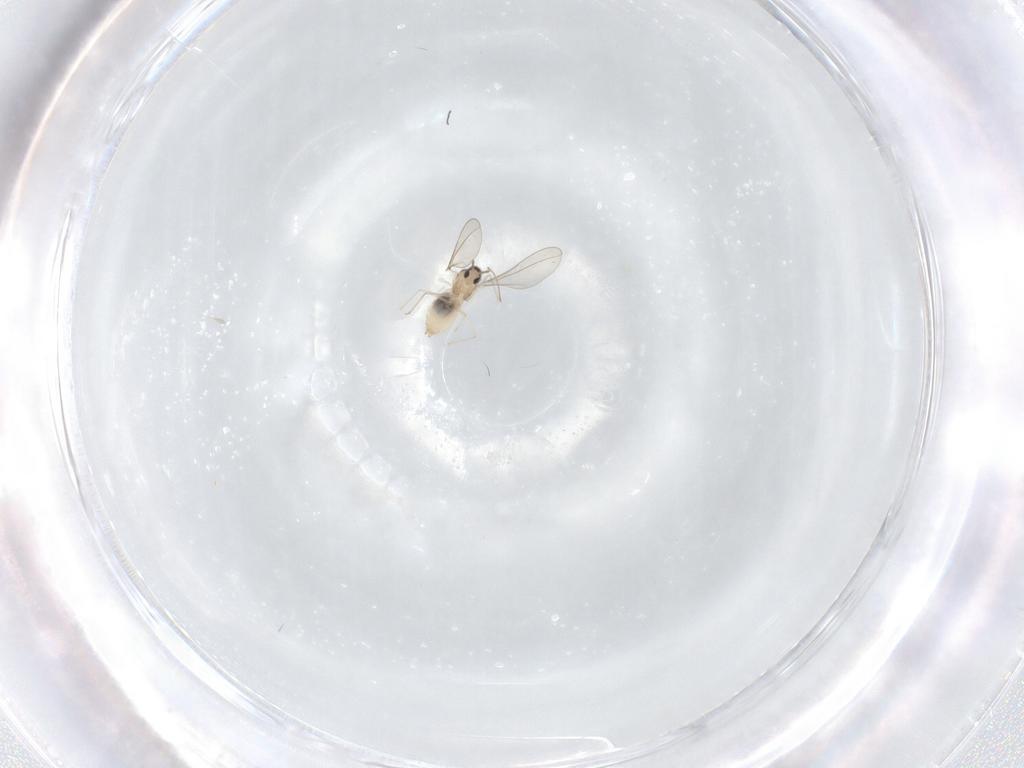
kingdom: Animalia
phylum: Arthropoda
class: Insecta
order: Diptera
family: Cecidomyiidae
